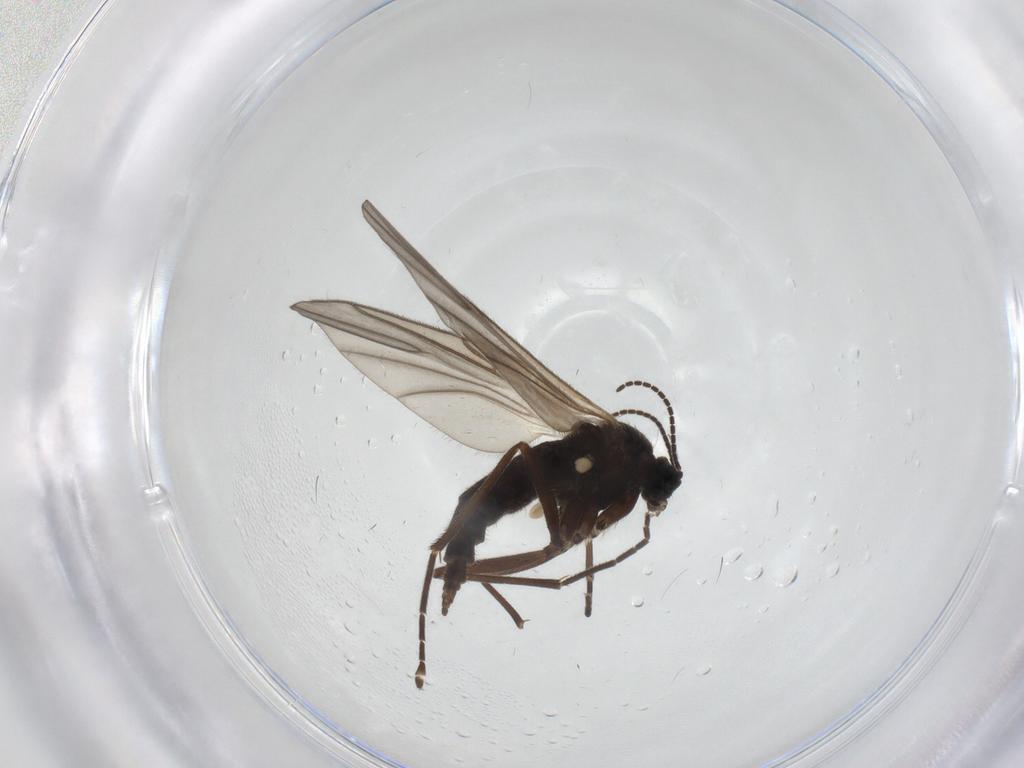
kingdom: Animalia
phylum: Arthropoda
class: Insecta
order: Diptera
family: Sciaridae
